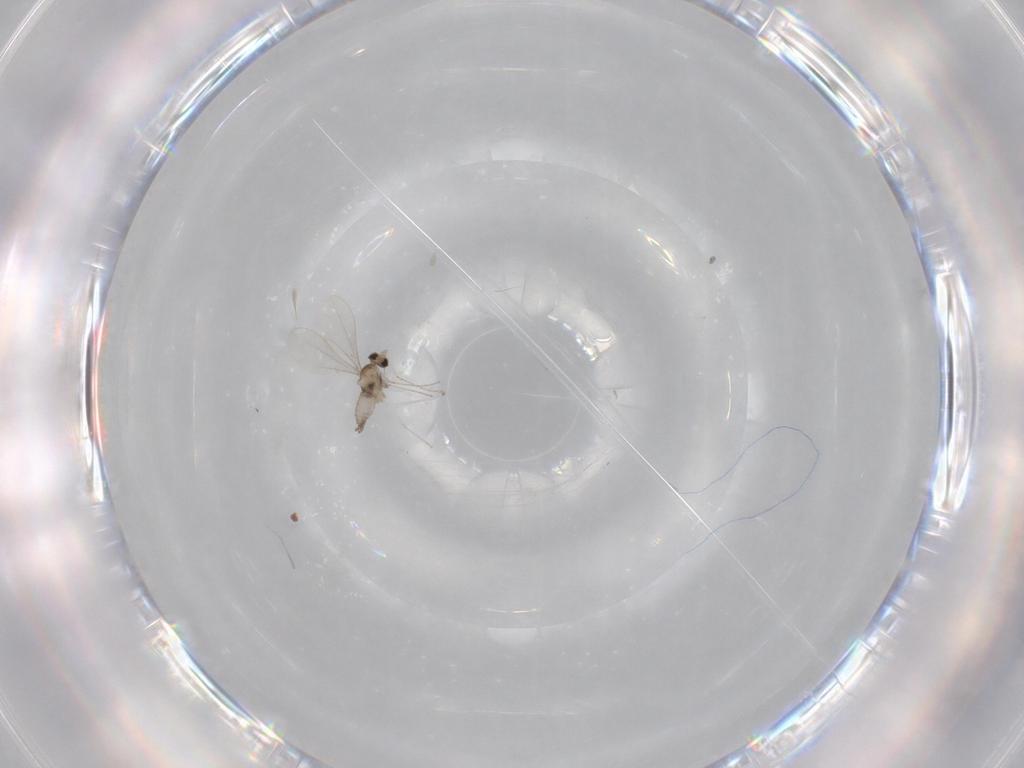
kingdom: Animalia
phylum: Arthropoda
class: Insecta
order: Diptera
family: Cecidomyiidae
